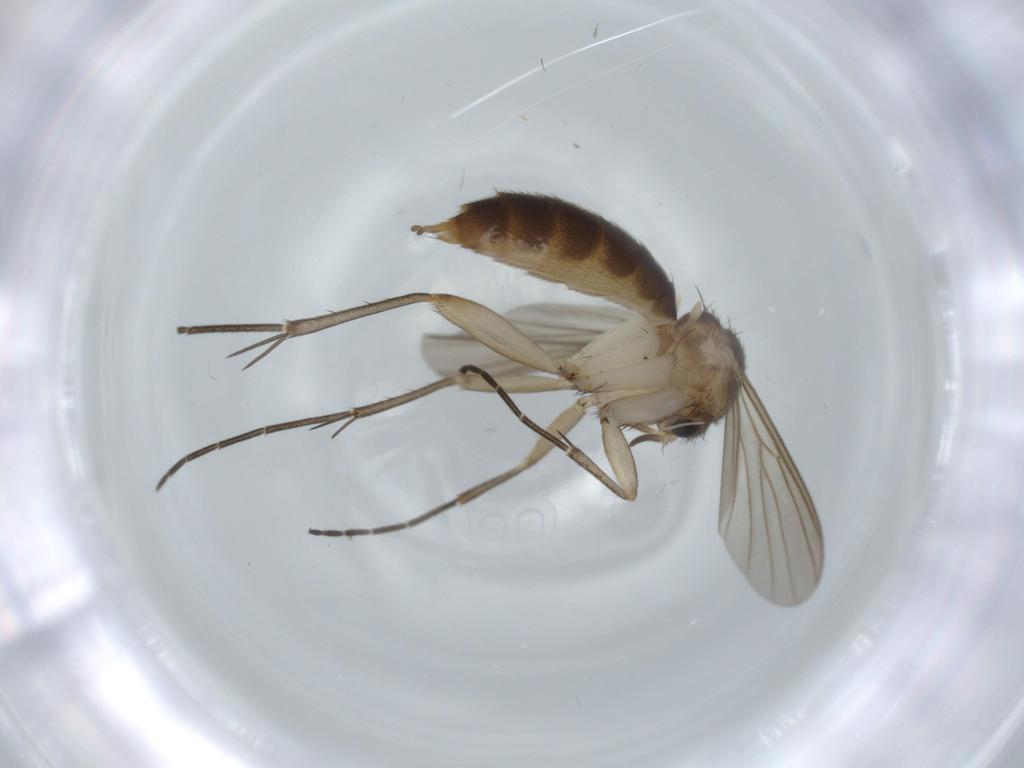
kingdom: Animalia
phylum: Arthropoda
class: Insecta
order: Diptera
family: Mycetophilidae
